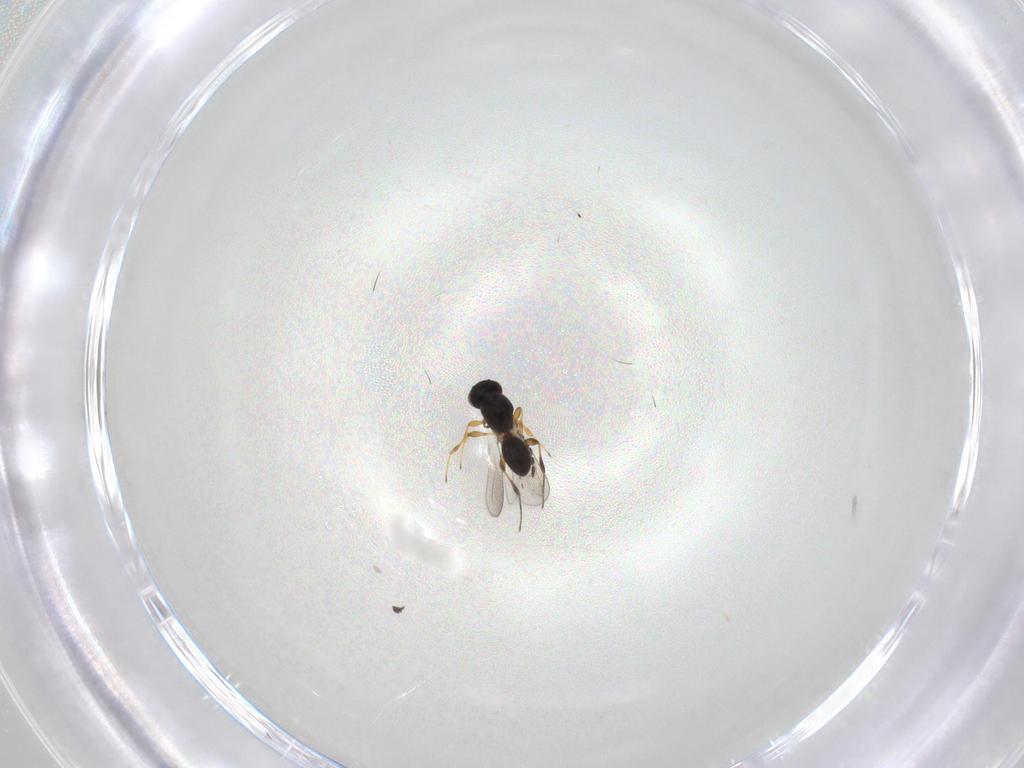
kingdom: Animalia
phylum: Arthropoda
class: Insecta
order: Hymenoptera
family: Platygastridae
